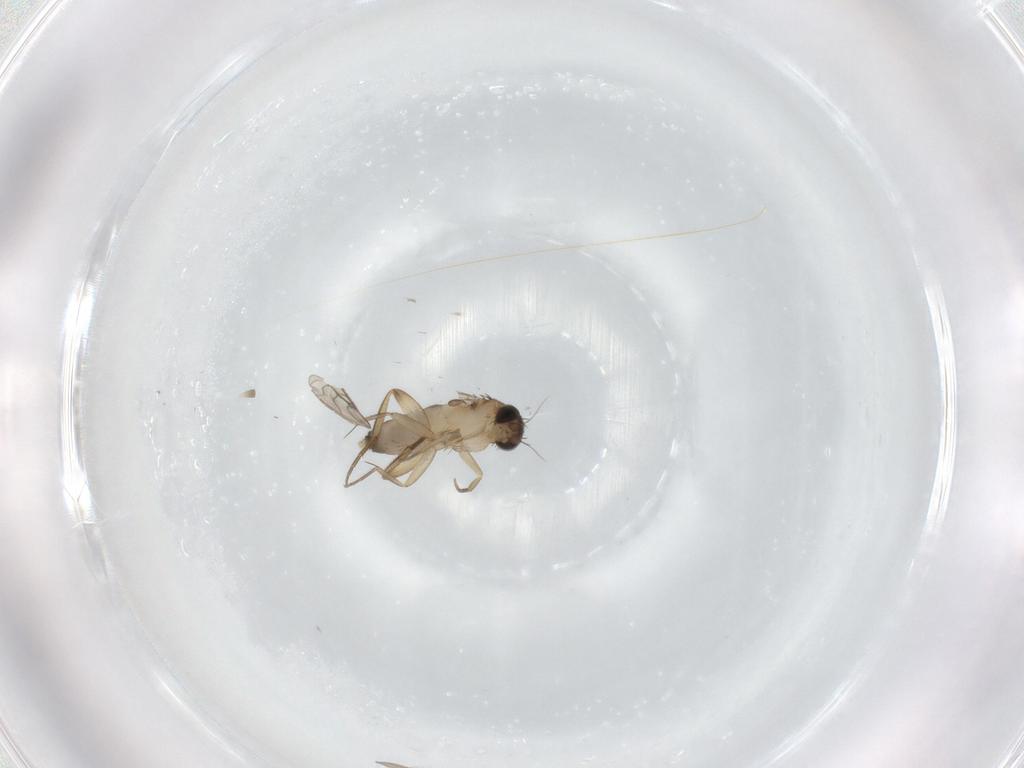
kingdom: Animalia
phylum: Arthropoda
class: Insecta
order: Diptera
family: Phoridae
